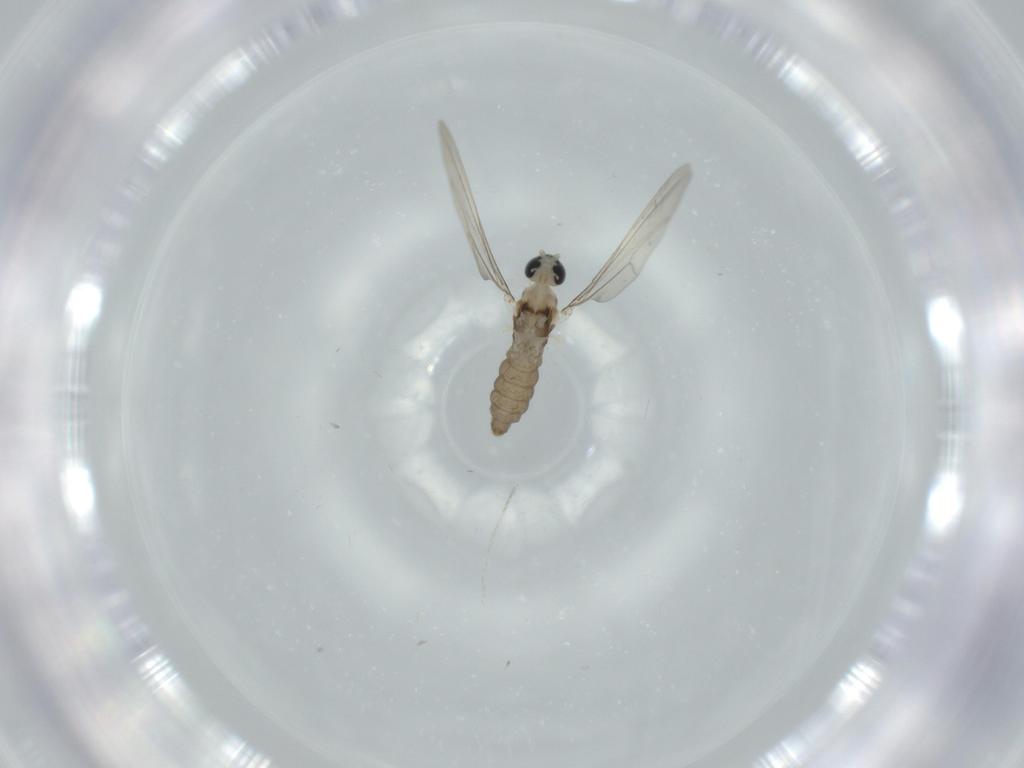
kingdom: Animalia
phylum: Arthropoda
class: Insecta
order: Diptera
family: Cecidomyiidae
